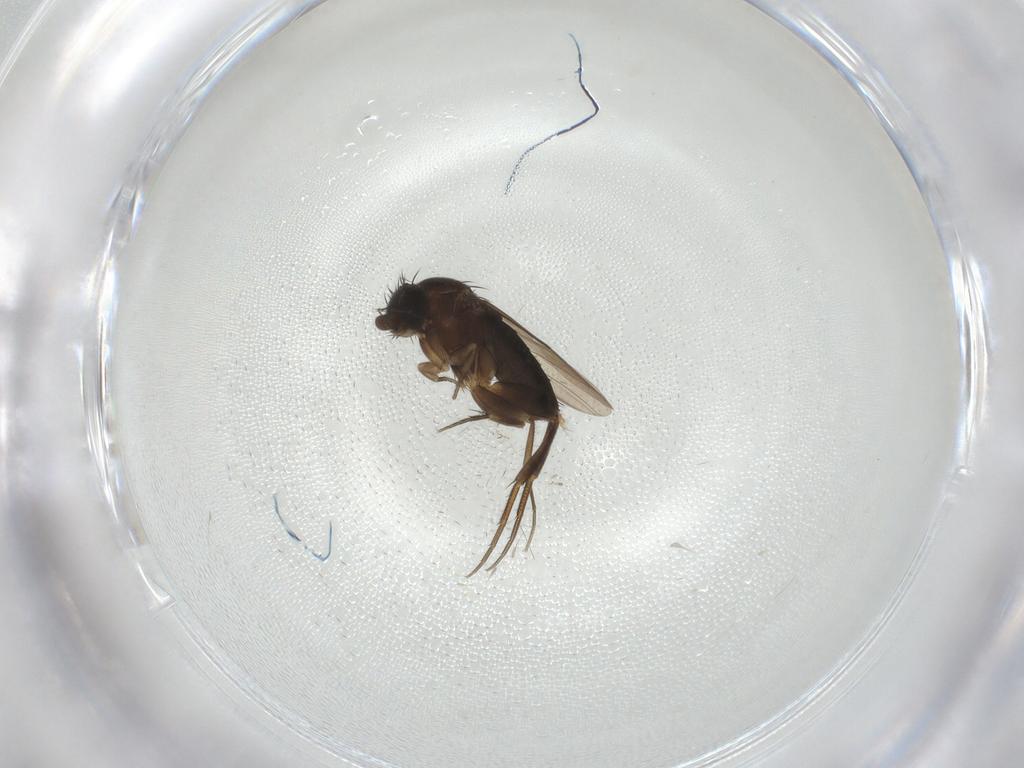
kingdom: Animalia
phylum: Arthropoda
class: Insecta
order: Diptera
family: Phoridae
